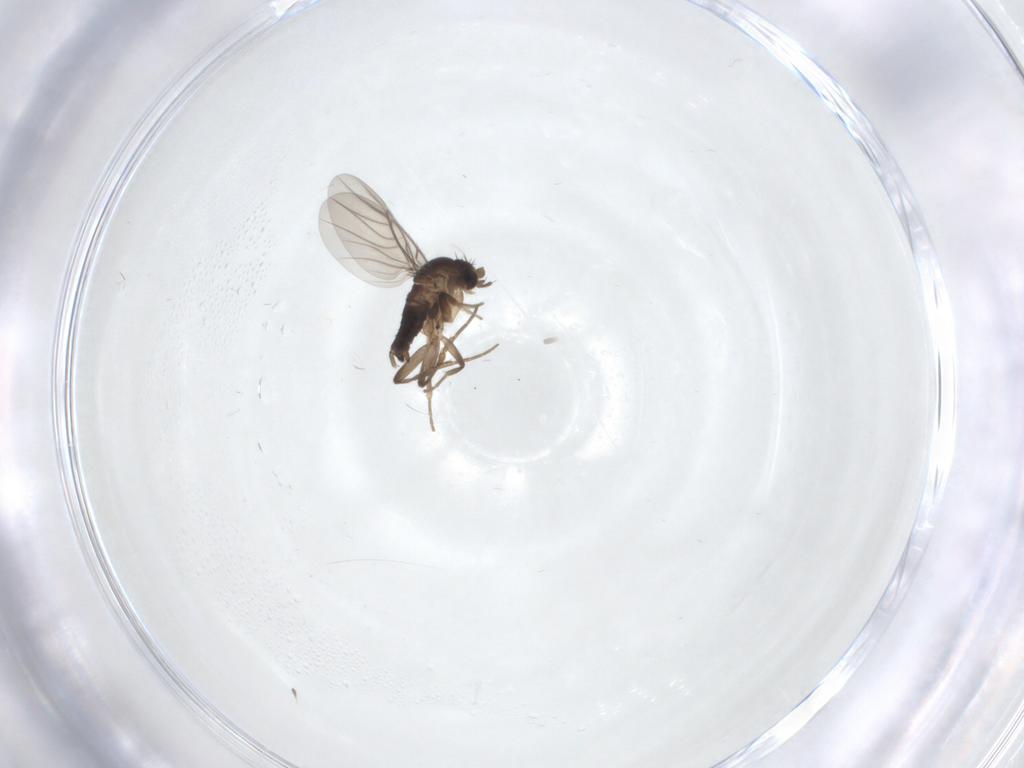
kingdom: Animalia
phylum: Arthropoda
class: Insecta
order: Diptera
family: Phoridae
